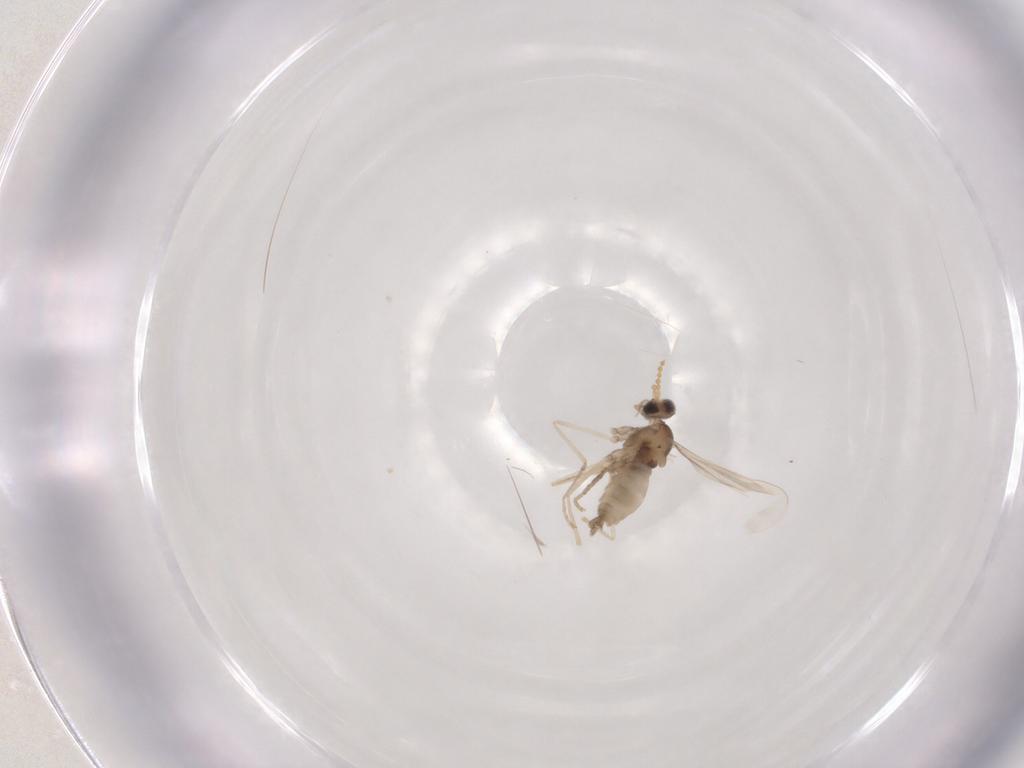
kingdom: Animalia
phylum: Arthropoda
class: Insecta
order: Diptera
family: Cecidomyiidae
